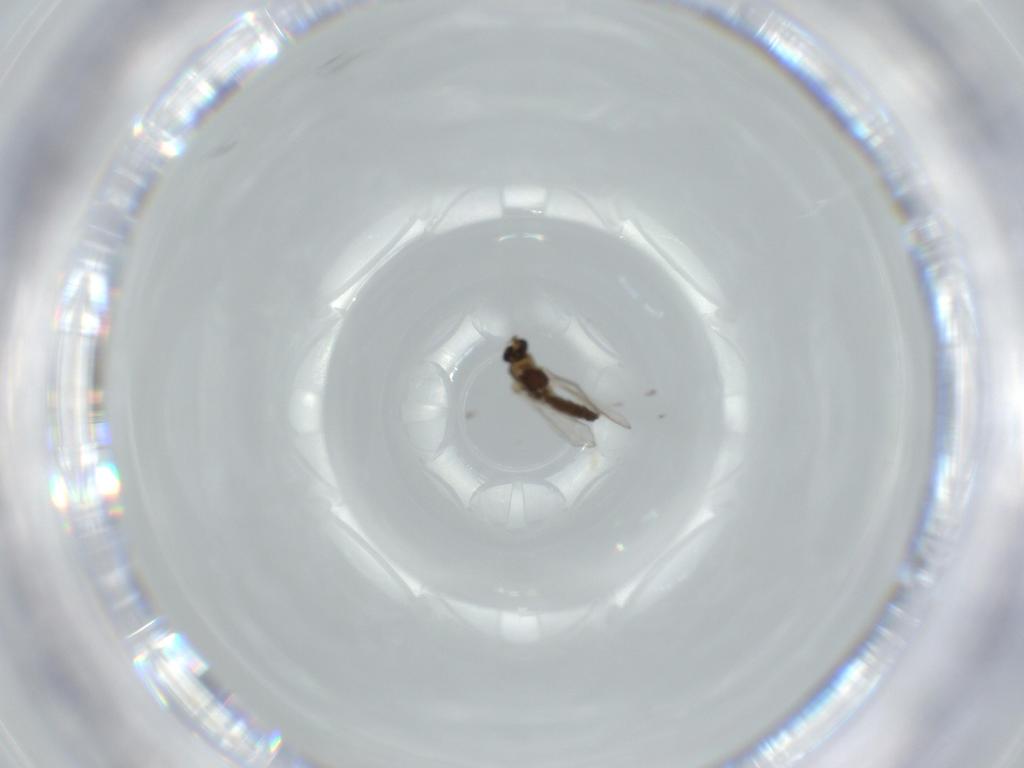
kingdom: Animalia
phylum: Arthropoda
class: Insecta
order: Diptera
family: Chironomidae
